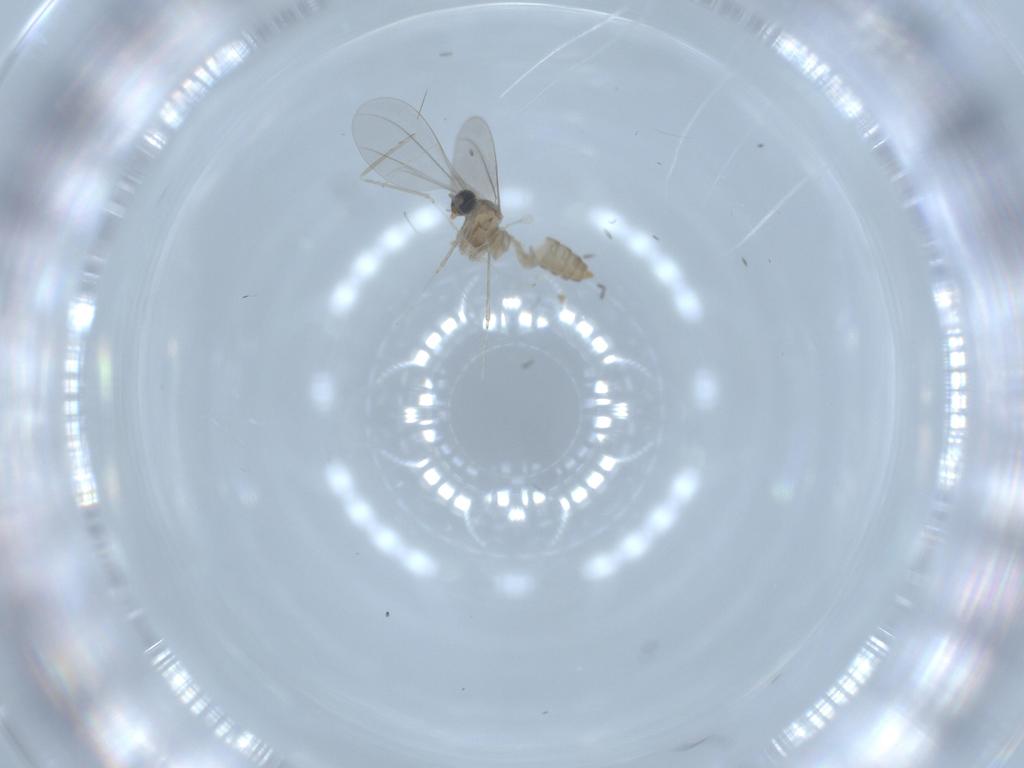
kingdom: Animalia
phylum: Arthropoda
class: Insecta
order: Diptera
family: Cecidomyiidae
